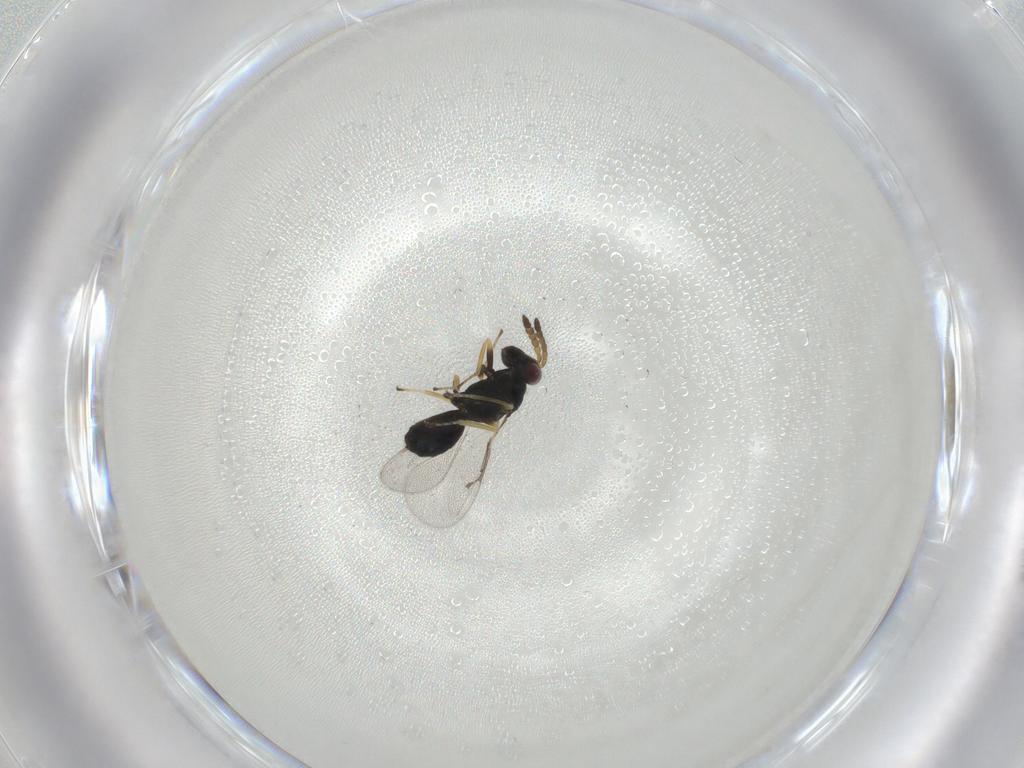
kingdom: Animalia
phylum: Arthropoda
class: Insecta
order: Hymenoptera
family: Eulophidae
